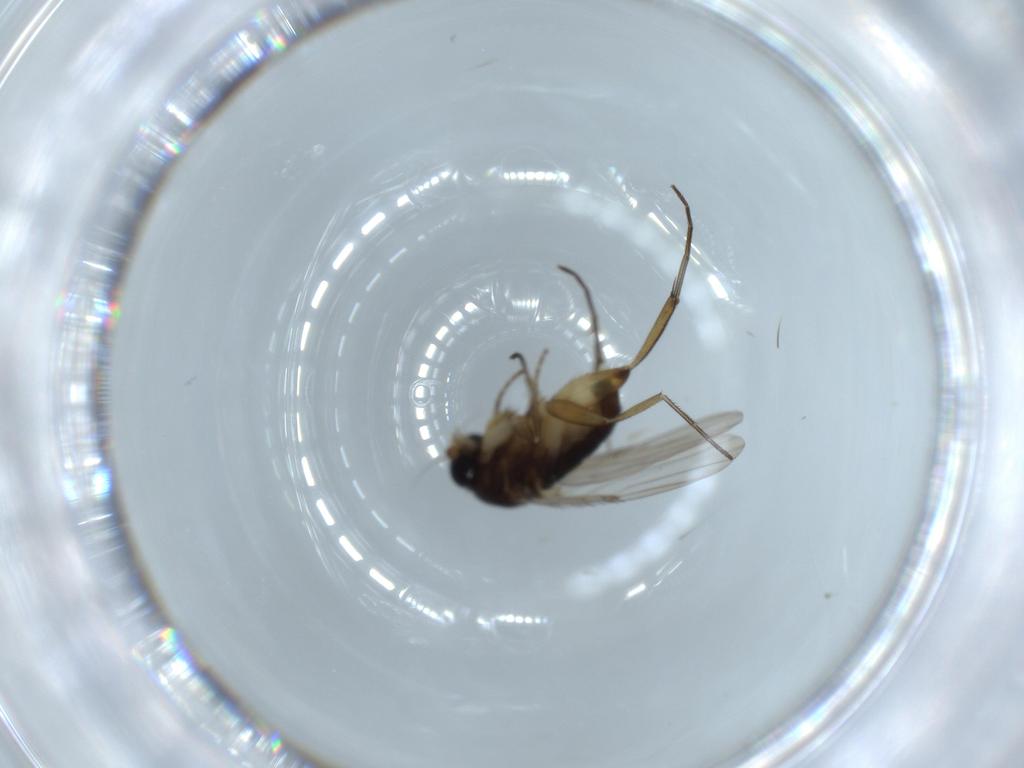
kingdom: Animalia
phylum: Arthropoda
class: Insecta
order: Diptera
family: Phoridae
